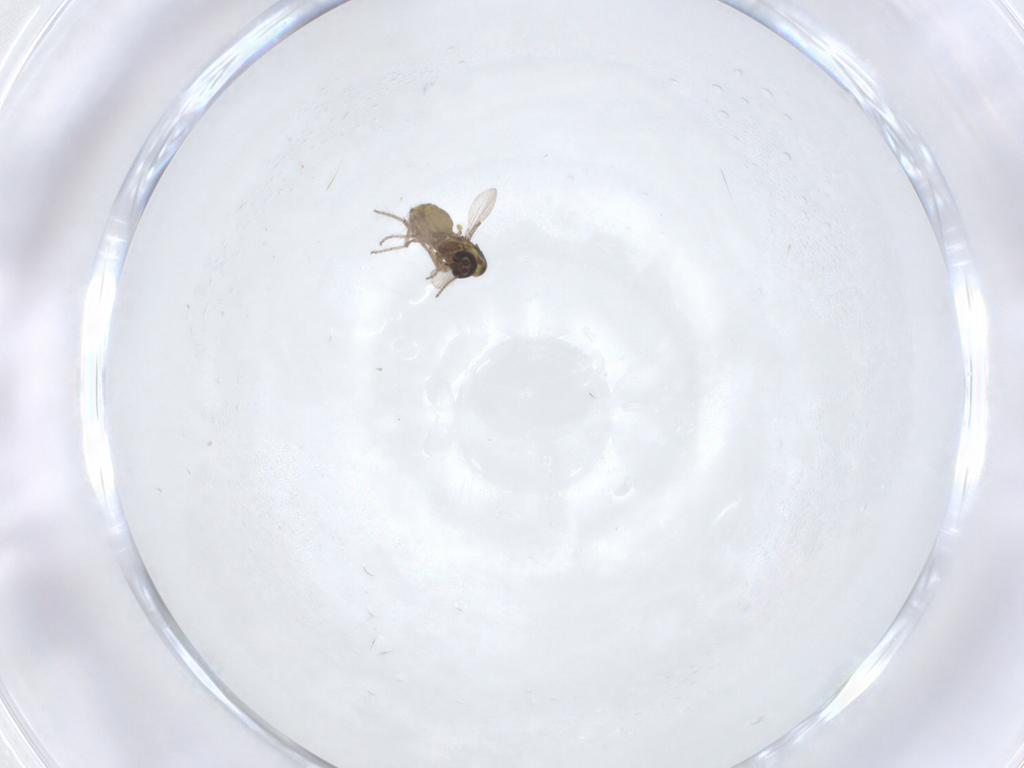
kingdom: Animalia
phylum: Arthropoda
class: Insecta
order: Diptera
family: Ceratopogonidae
